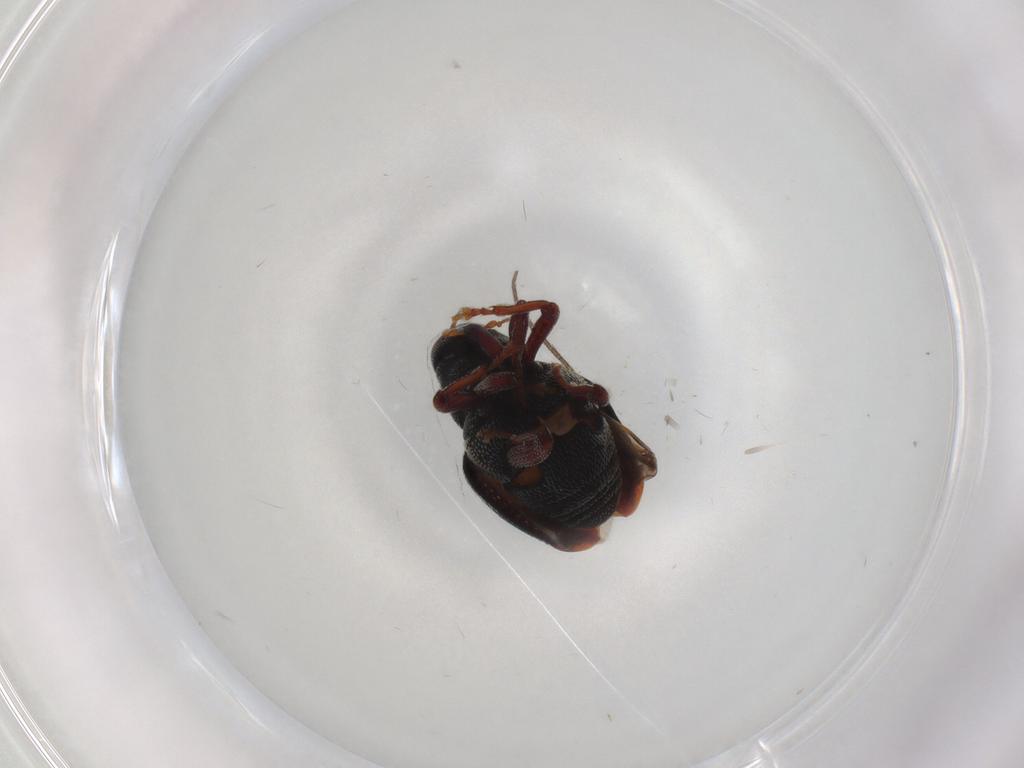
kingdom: Animalia
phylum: Arthropoda
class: Insecta
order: Coleoptera
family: Curculionidae
